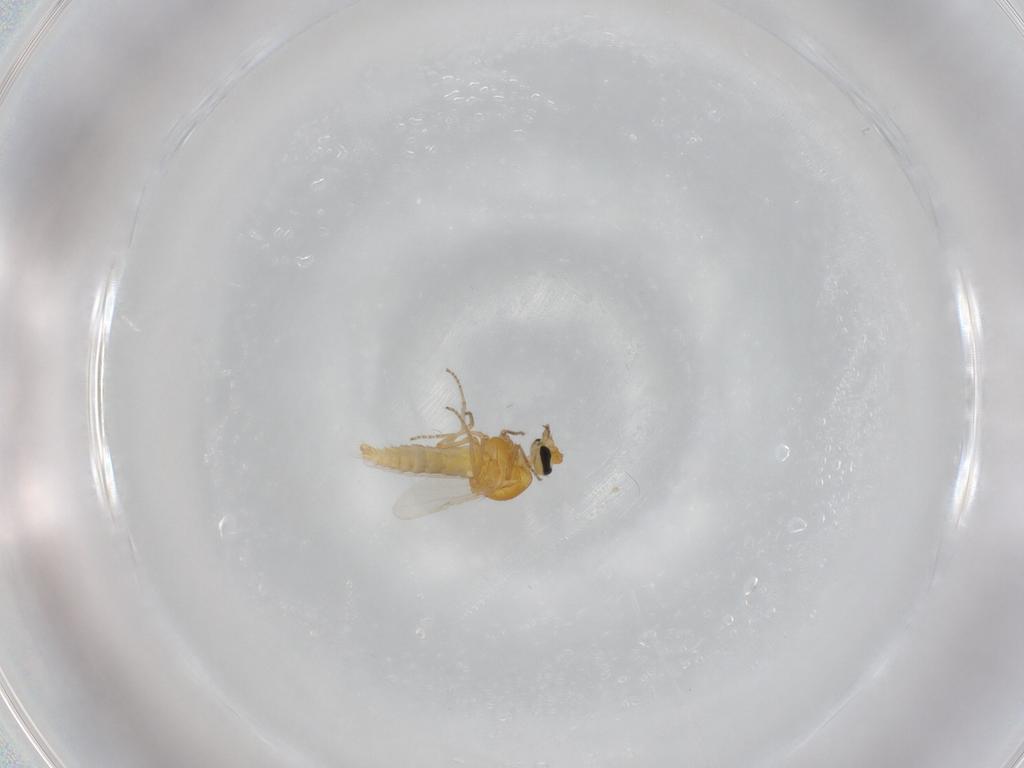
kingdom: Animalia
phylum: Arthropoda
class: Insecta
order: Diptera
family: Ceratopogonidae
